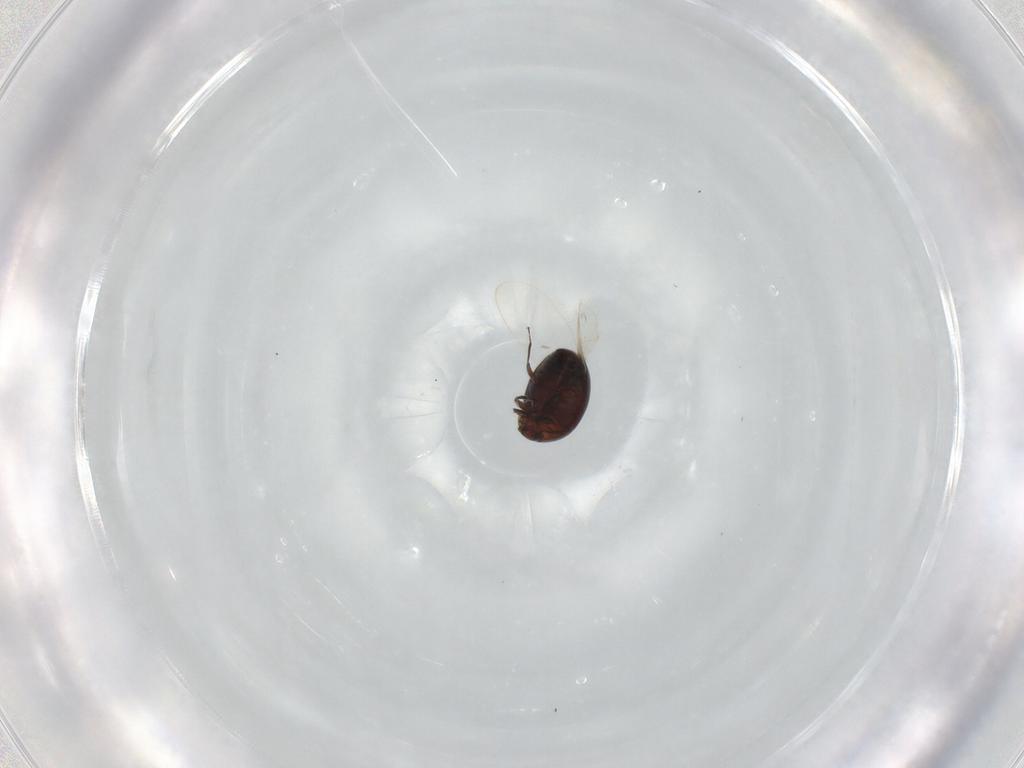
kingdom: Animalia
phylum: Arthropoda
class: Insecta
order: Coleoptera
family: Corylophidae
